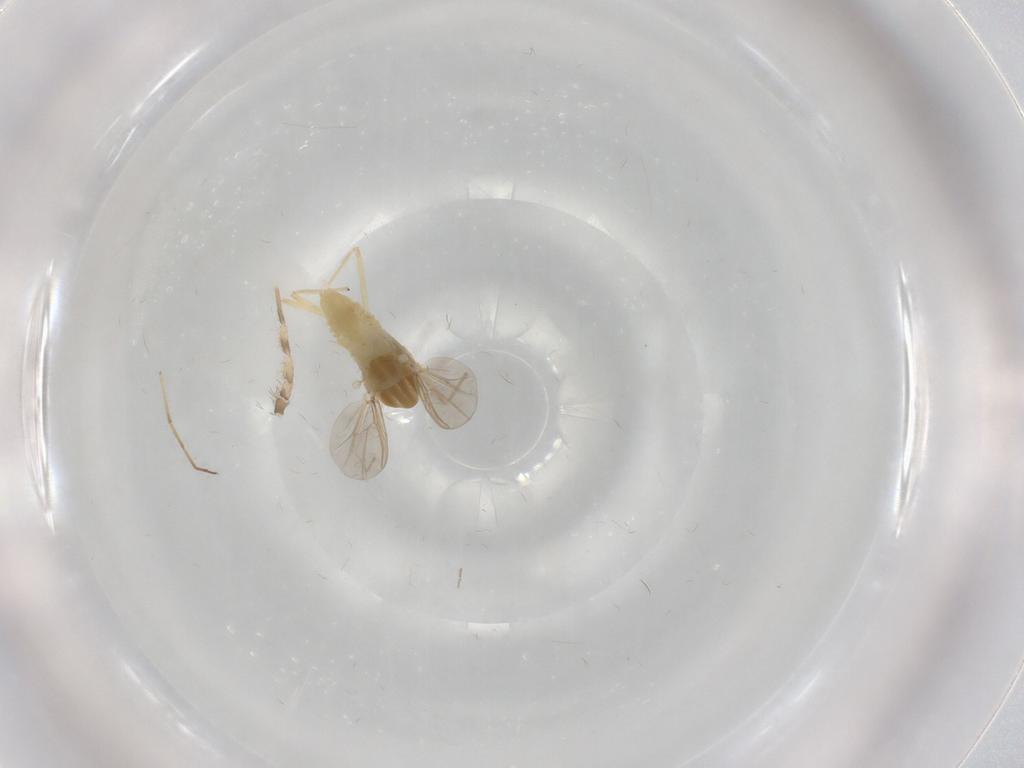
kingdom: Animalia
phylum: Arthropoda
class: Insecta
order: Diptera
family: Chironomidae
